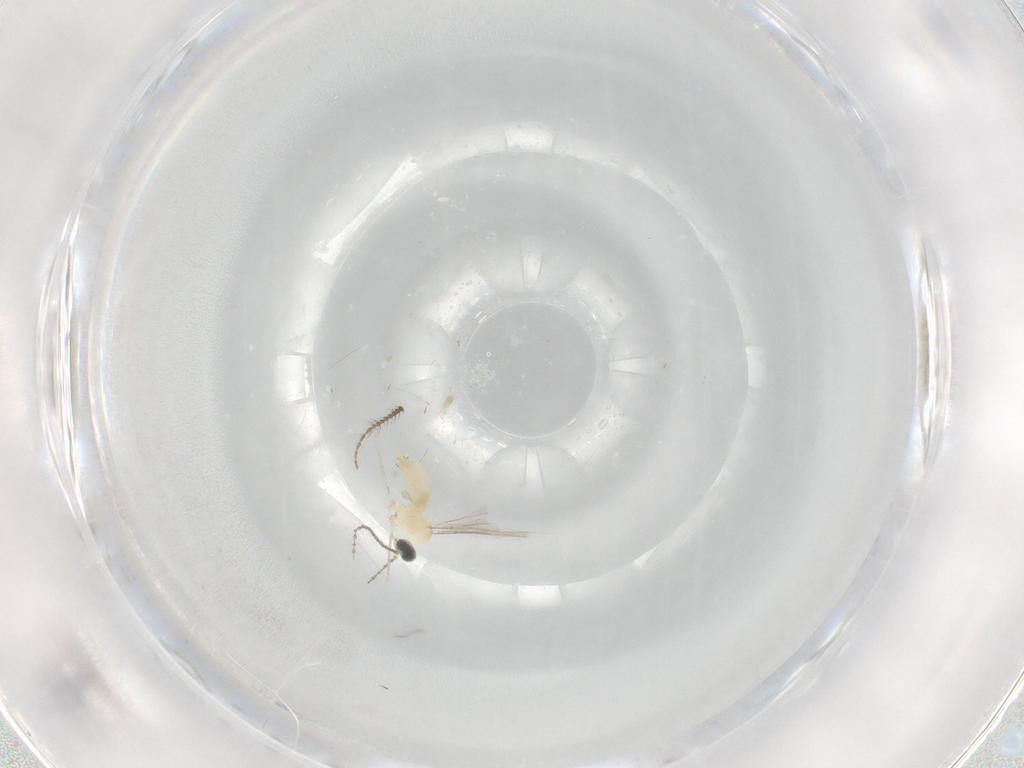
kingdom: Animalia
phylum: Arthropoda
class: Insecta
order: Diptera
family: Cecidomyiidae
